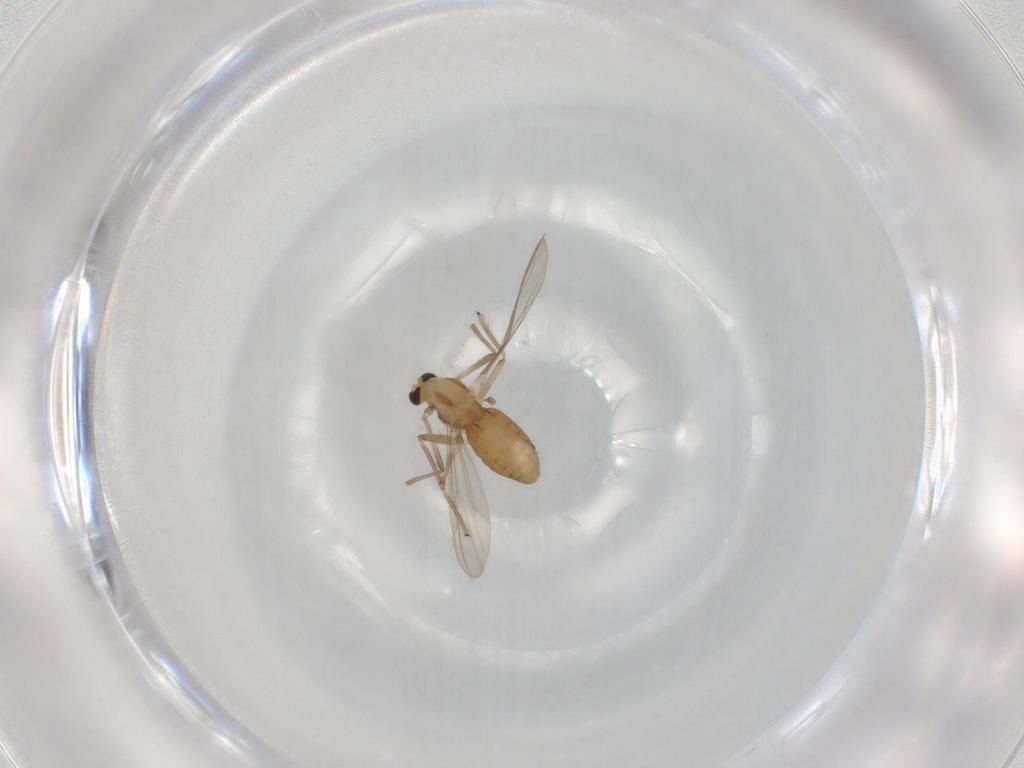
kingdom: Animalia
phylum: Arthropoda
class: Insecta
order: Diptera
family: Chironomidae
